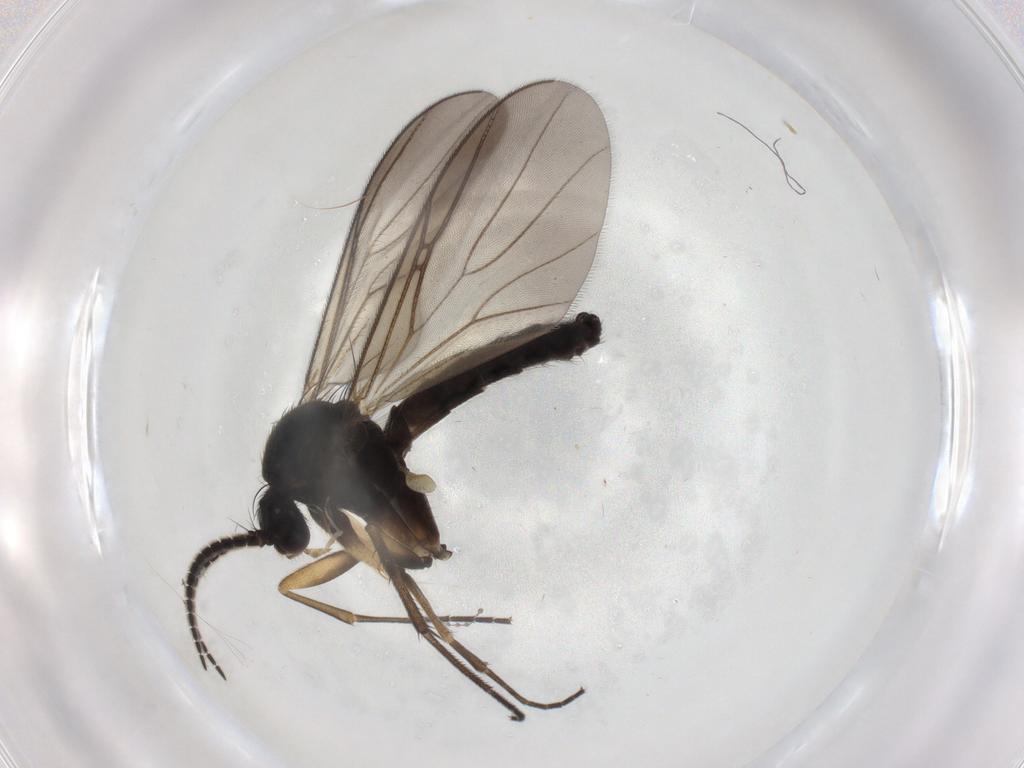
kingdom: Animalia
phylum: Arthropoda
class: Insecta
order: Diptera
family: Mycetophilidae
